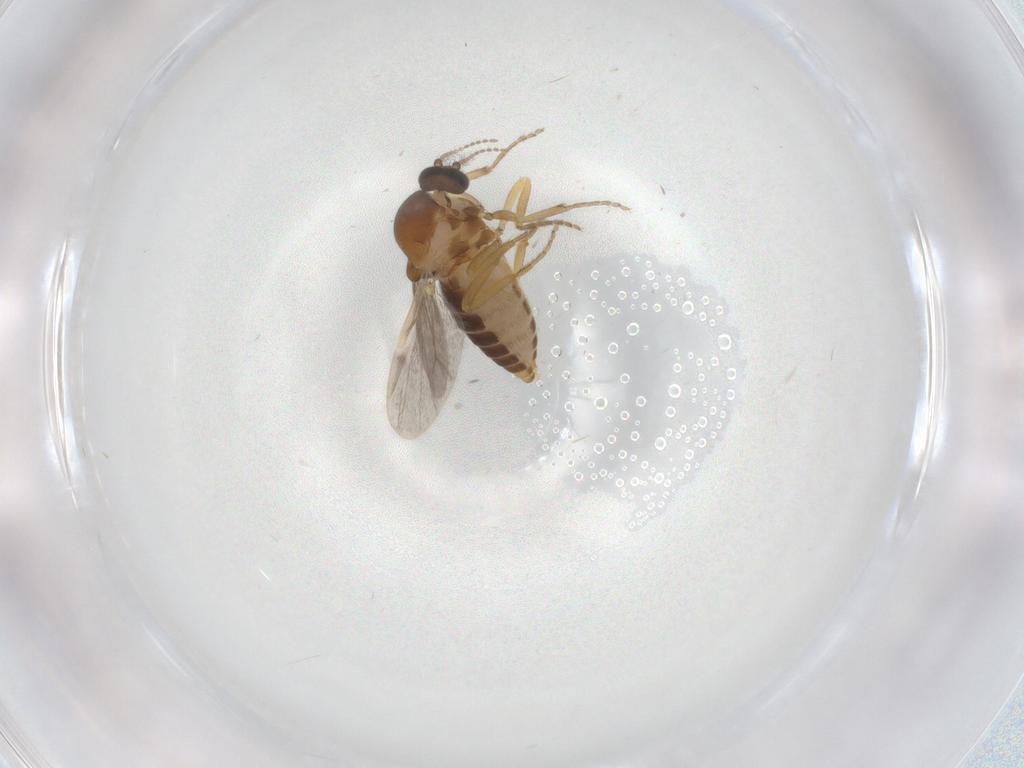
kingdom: Animalia
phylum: Arthropoda
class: Insecta
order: Diptera
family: Ceratopogonidae
